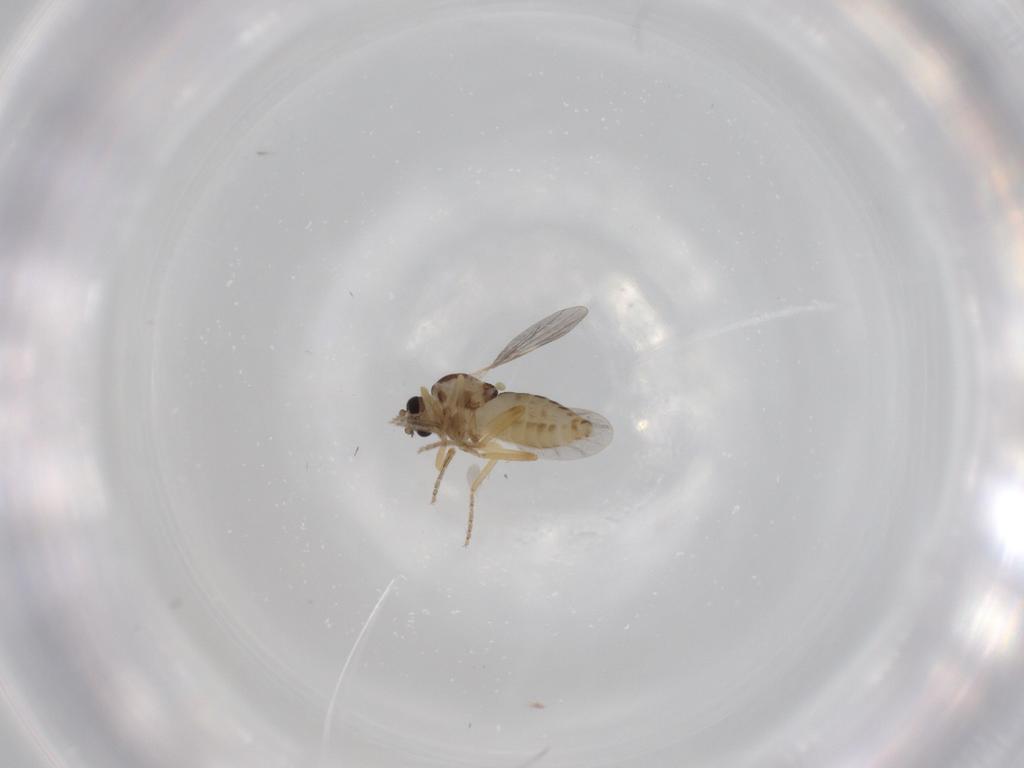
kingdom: Animalia
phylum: Arthropoda
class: Insecta
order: Diptera
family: Ceratopogonidae
